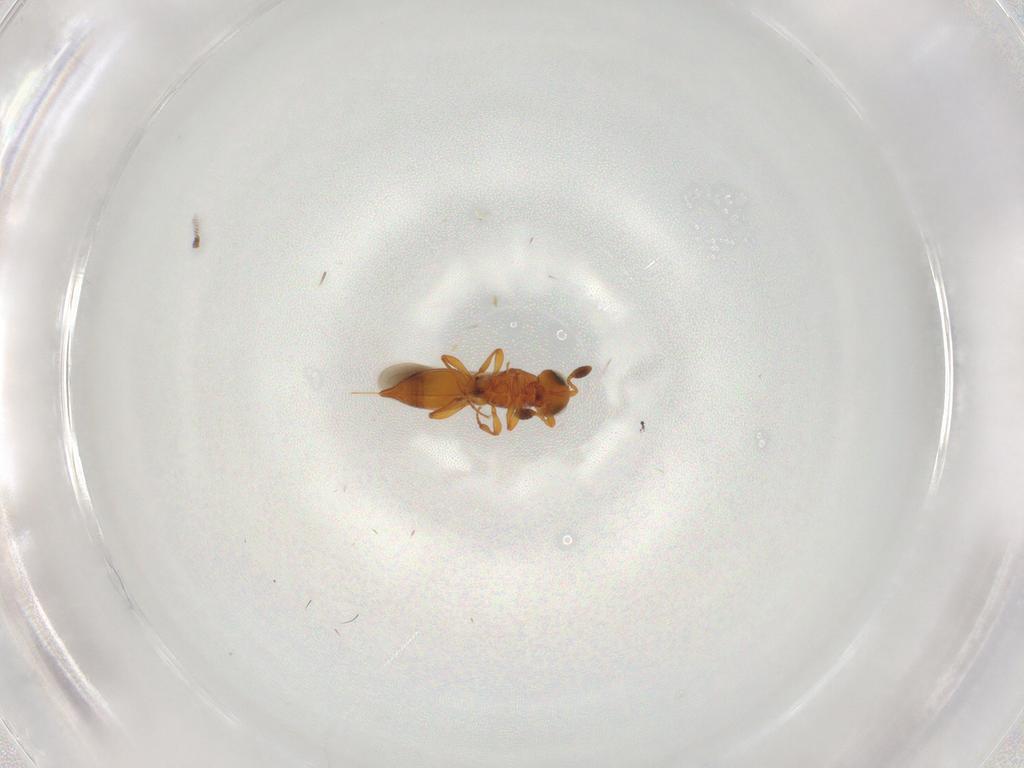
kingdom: Animalia
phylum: Arthropoda
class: Insecta
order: Hymenoptera
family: Platygastridae
